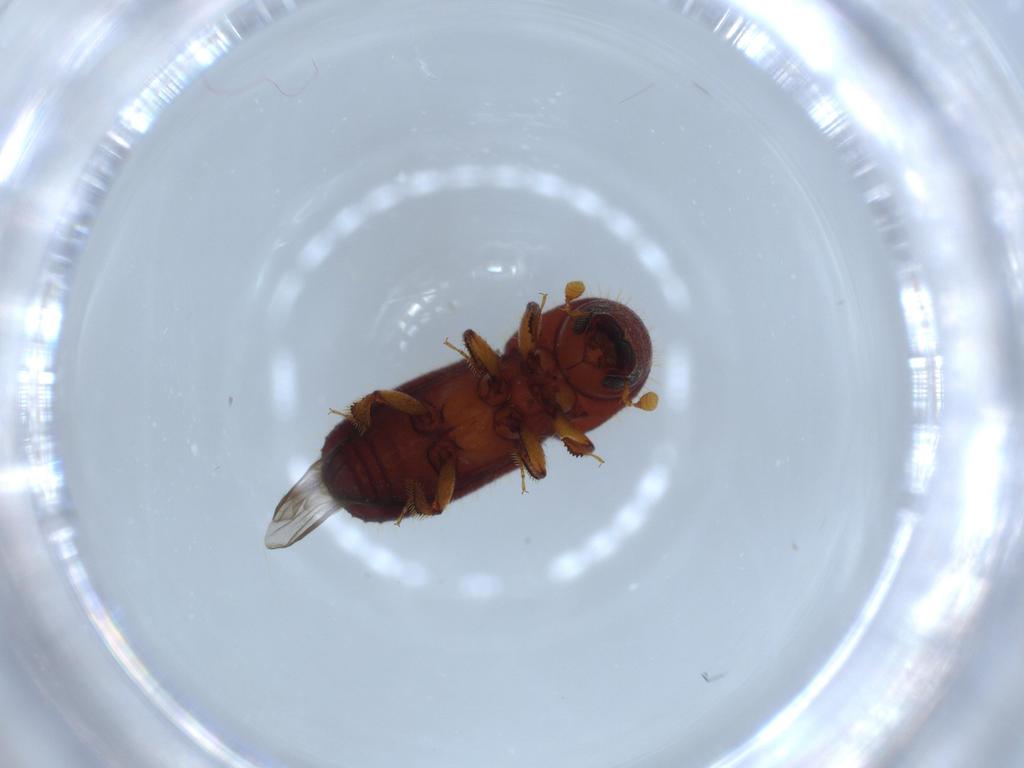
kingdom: Animalia
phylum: Arthropoda
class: Insecta
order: Coleoptera
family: Curculionidae
